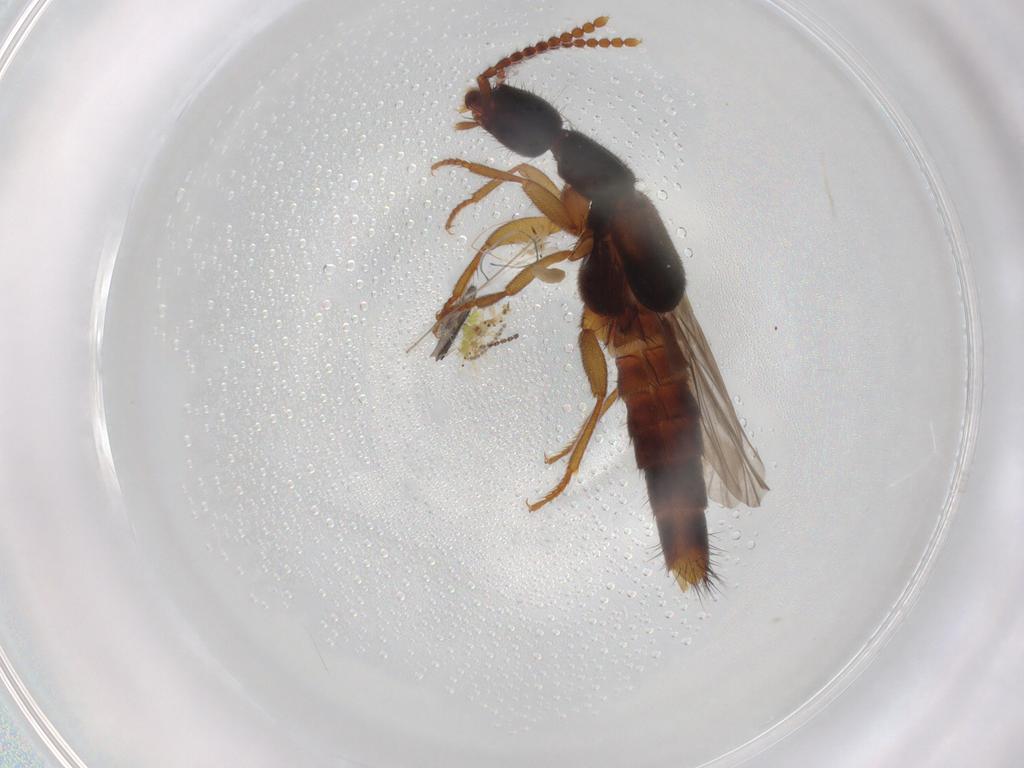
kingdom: Animalia
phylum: Arthropoda
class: Insecta
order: Coleoptera
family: Staphylinidae
